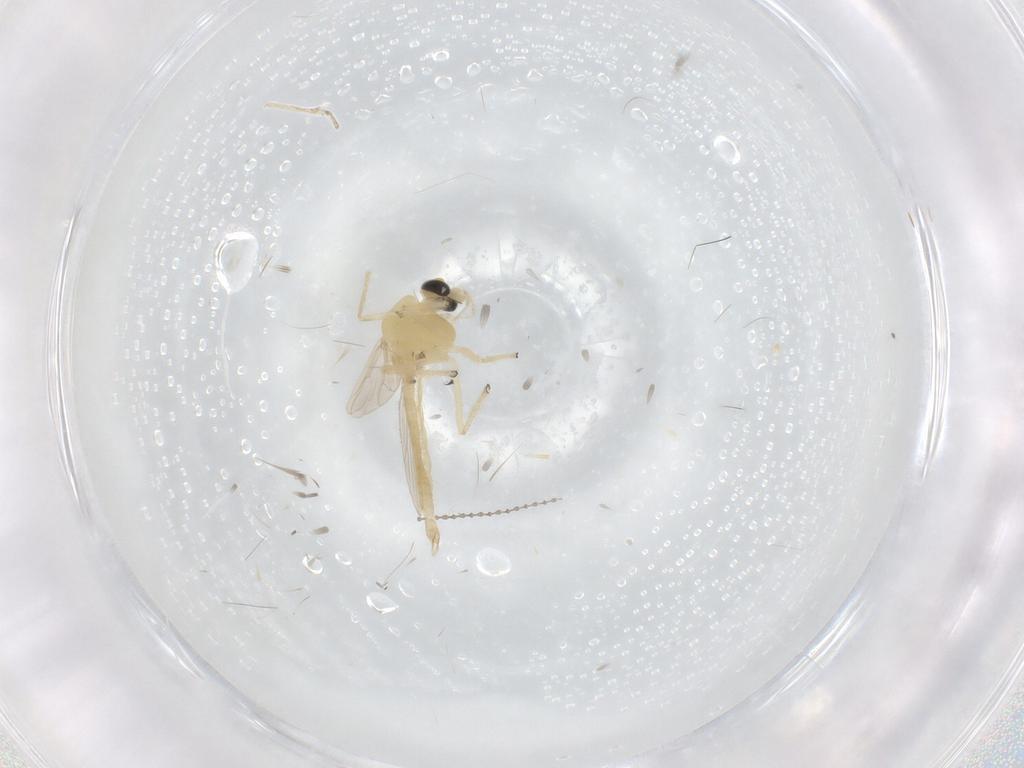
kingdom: Animalia
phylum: Arthropoda
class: Insecta
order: Diptera
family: Chironomidae
